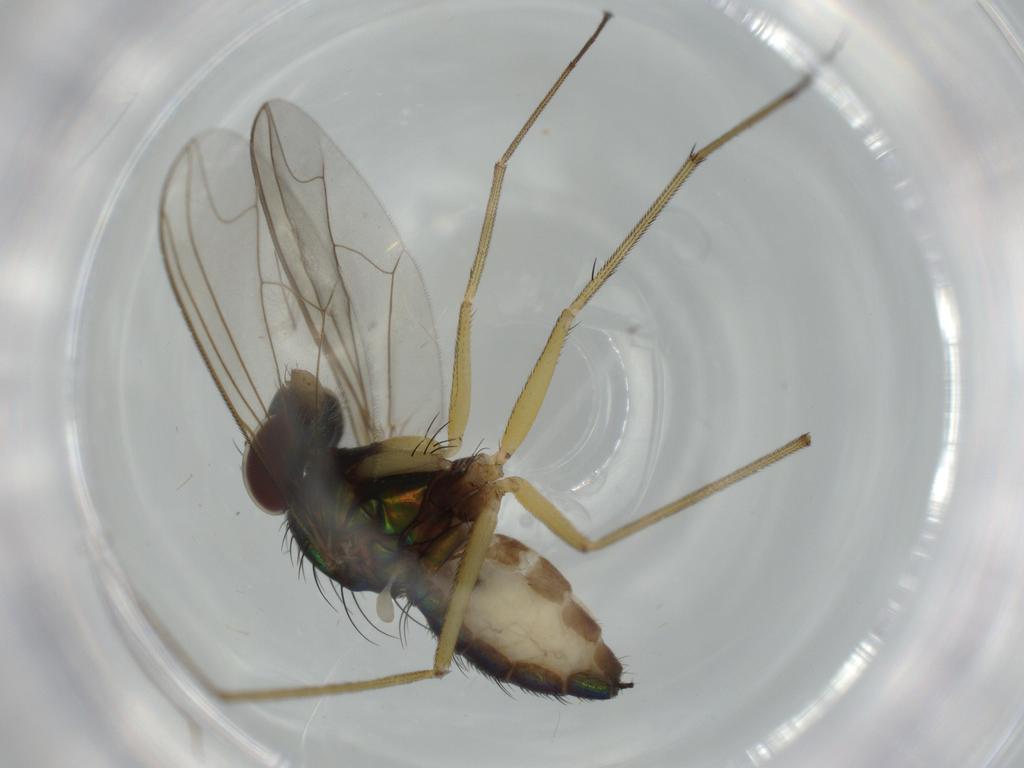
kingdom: Animalia
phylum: Arthropoda
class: Insecta
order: Diptera
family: Dolichopodidae
